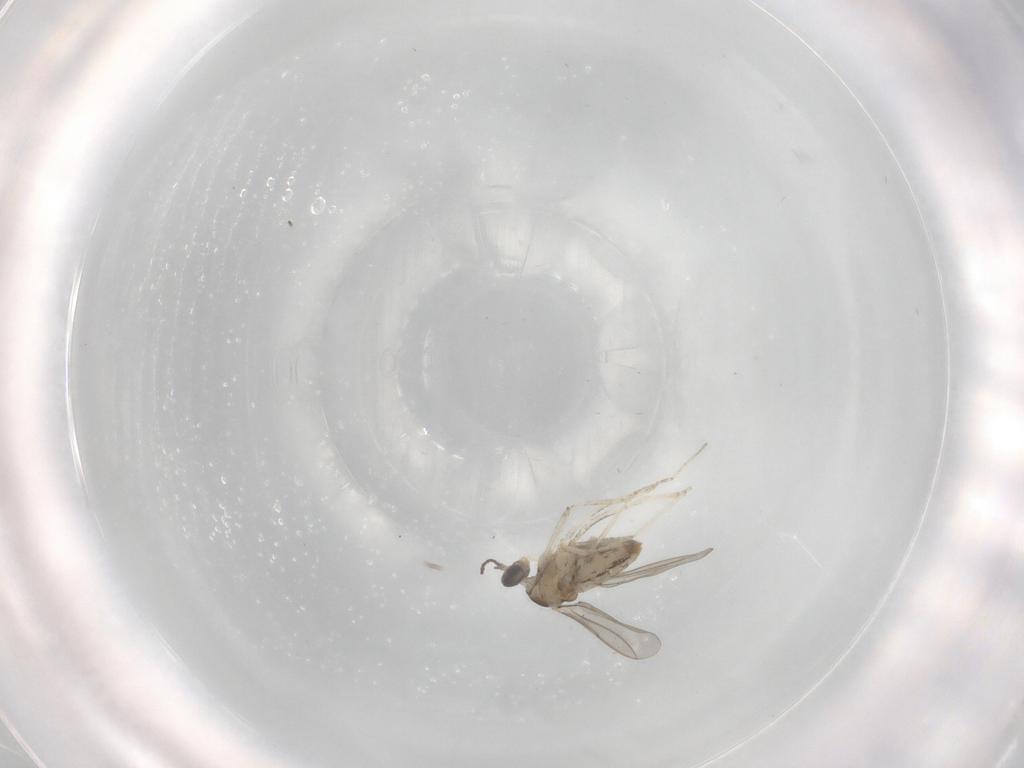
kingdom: Animalia
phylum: Arthropoda
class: Insecta
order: Diptera
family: Cecidomyiidae
